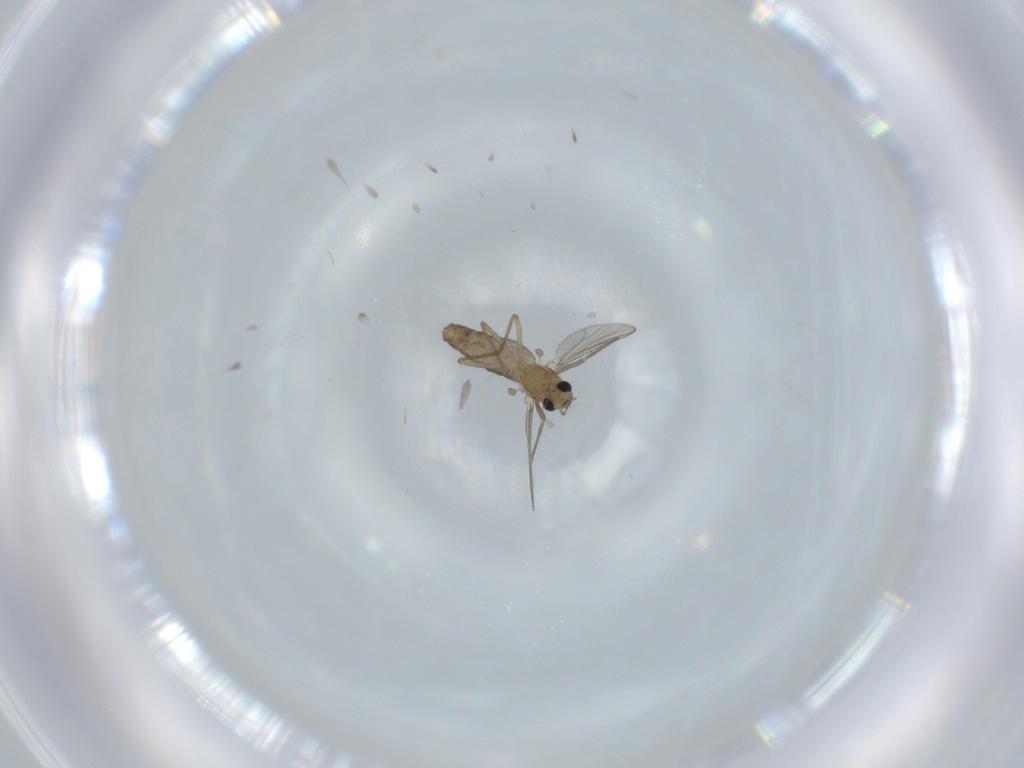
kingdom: Animalia
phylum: Arthropoda
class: Insecta
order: Diptera
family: Chironomidae
